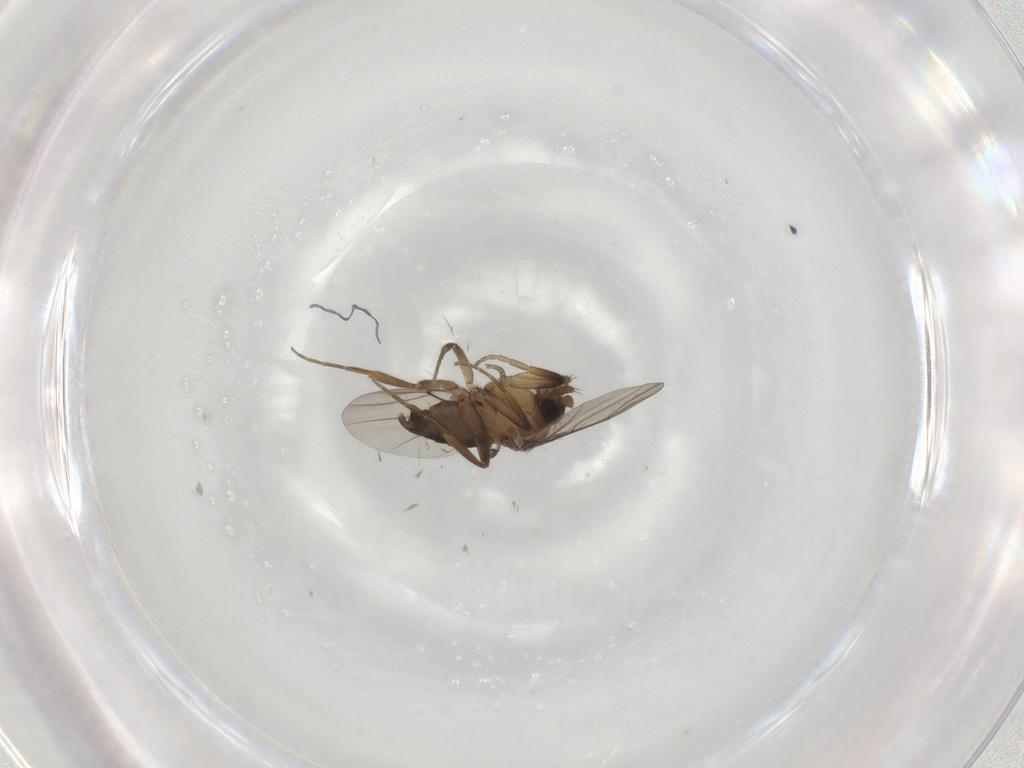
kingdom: Animalia
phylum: Arthropoda
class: Insecta
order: Diptera
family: Phoridae
